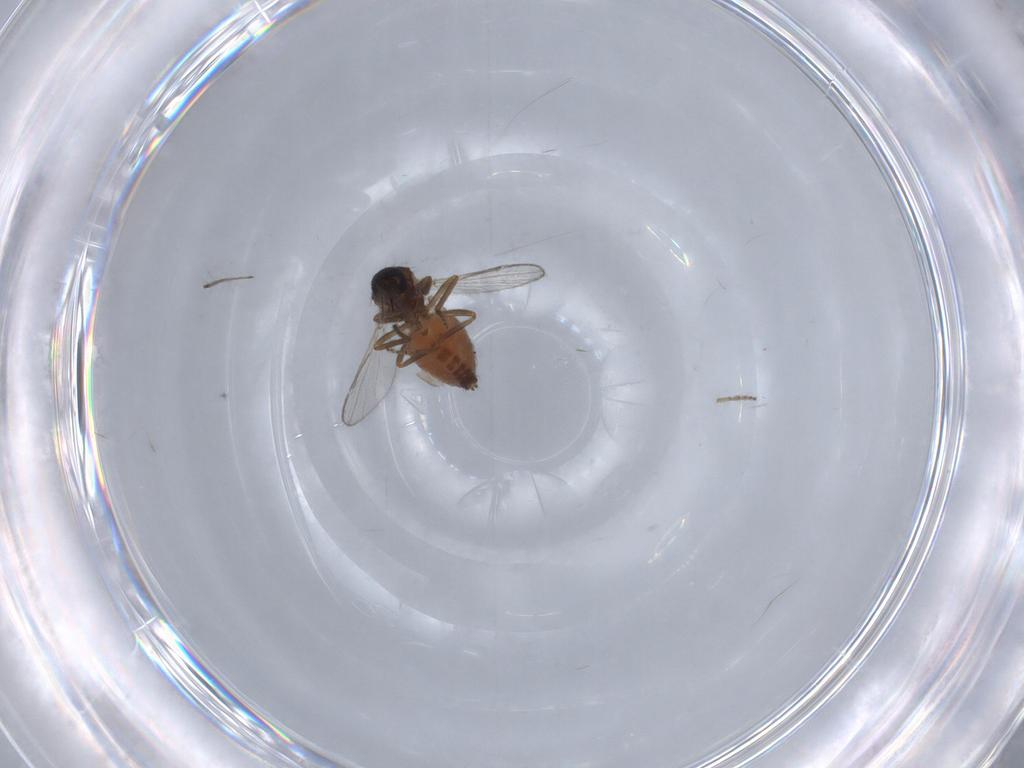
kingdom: Animalia
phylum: Arthropoda
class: Insecta
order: Diptera
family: Ceratopogonidae
